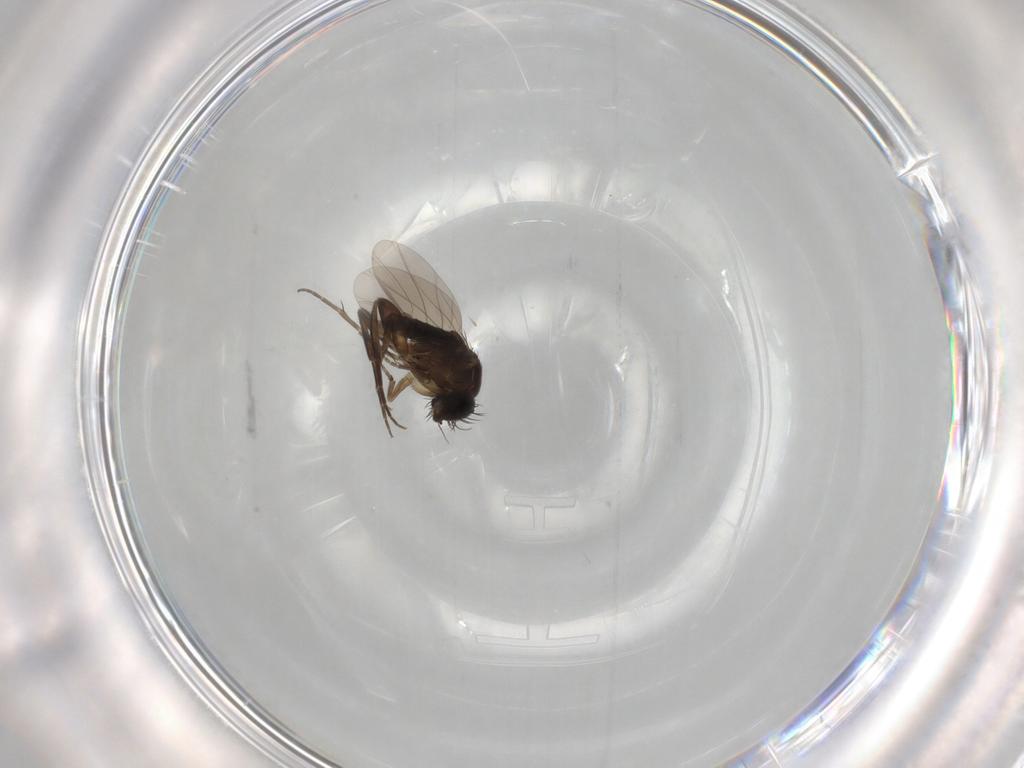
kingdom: Animalia
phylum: Arthropoda
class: Insecta
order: Diptera
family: Phoridae
